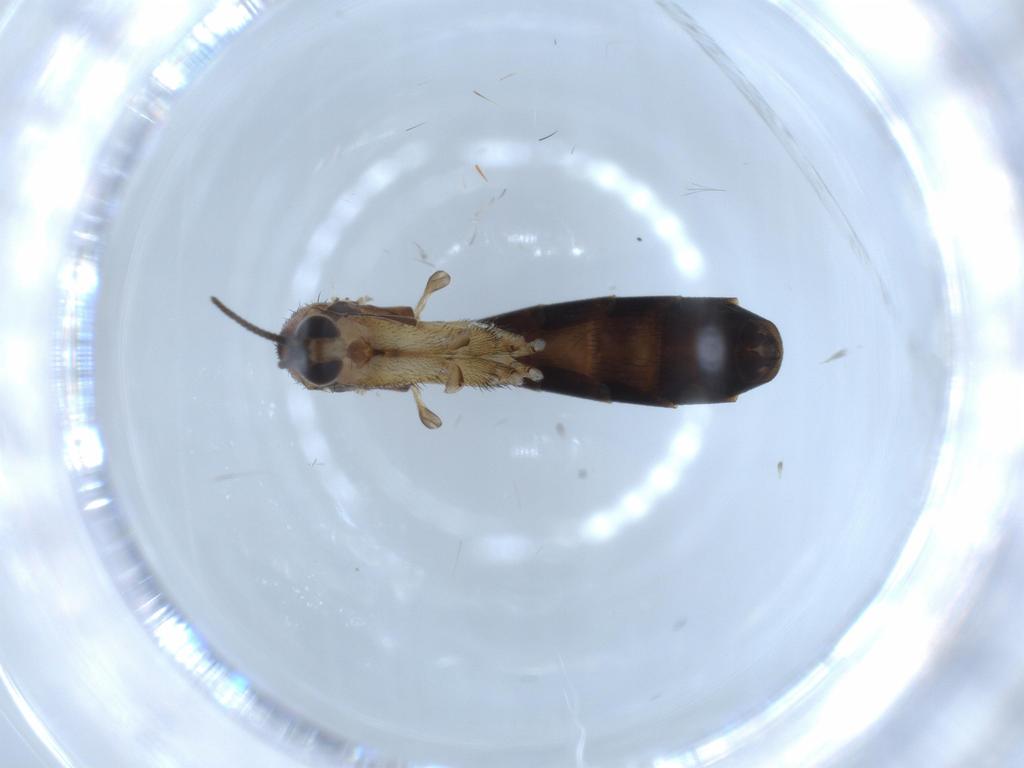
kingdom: Animalia
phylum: Arthropoda
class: Insecta
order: Diptera
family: Keroplatidae
